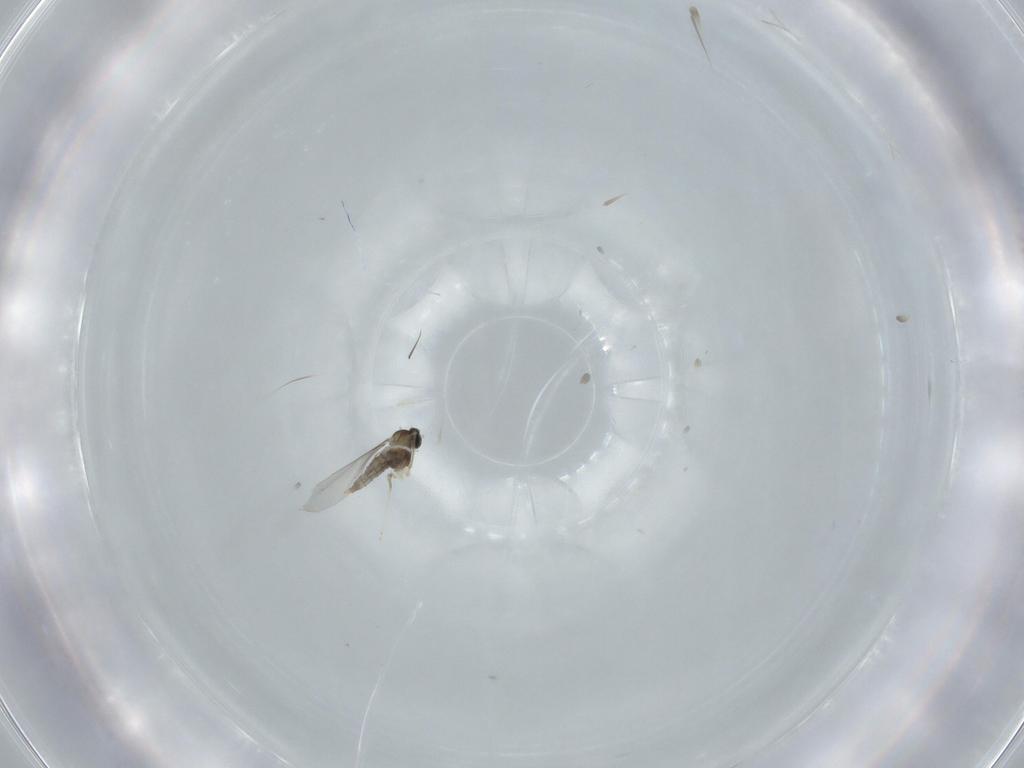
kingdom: Animalia
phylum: Arthropoda
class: Insecta
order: Diptera
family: Cecidomyiidae
